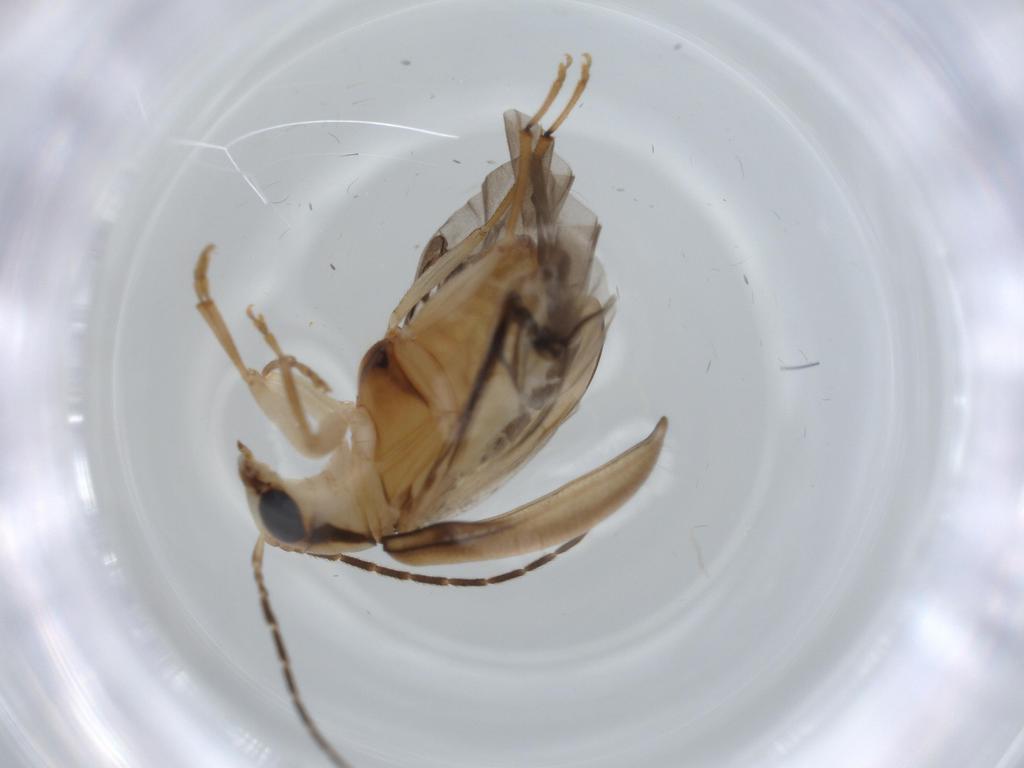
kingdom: Animalia
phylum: Arthropoda
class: Insecta
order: Coleoptera
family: Chrysomelidae
